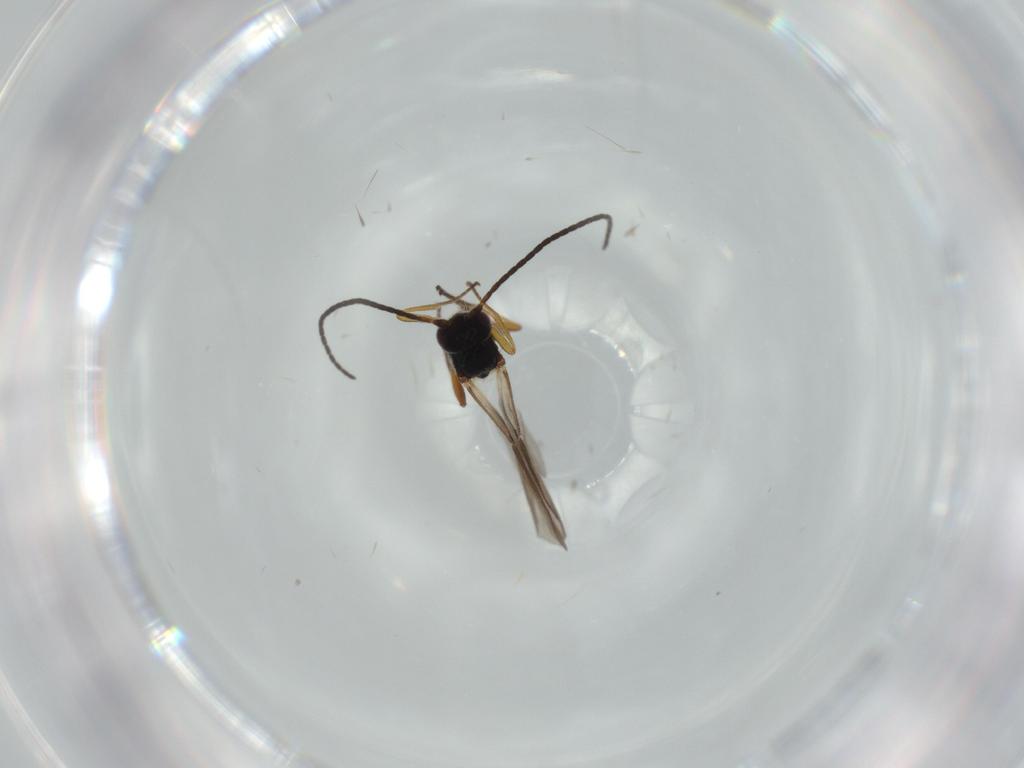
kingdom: Animalia
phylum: Arthropoda
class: Insecta
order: Hymenoptera
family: Braconidae
